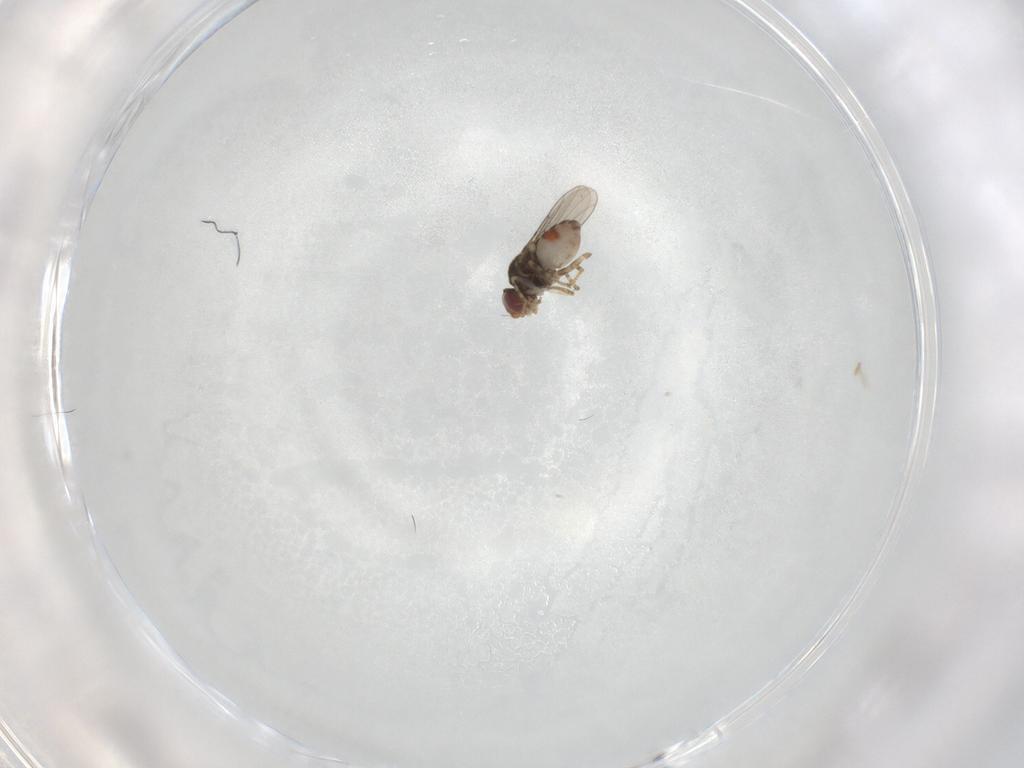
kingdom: Animalia
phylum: Arthropoda
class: Insecta
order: Diptera
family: Chloropidae
